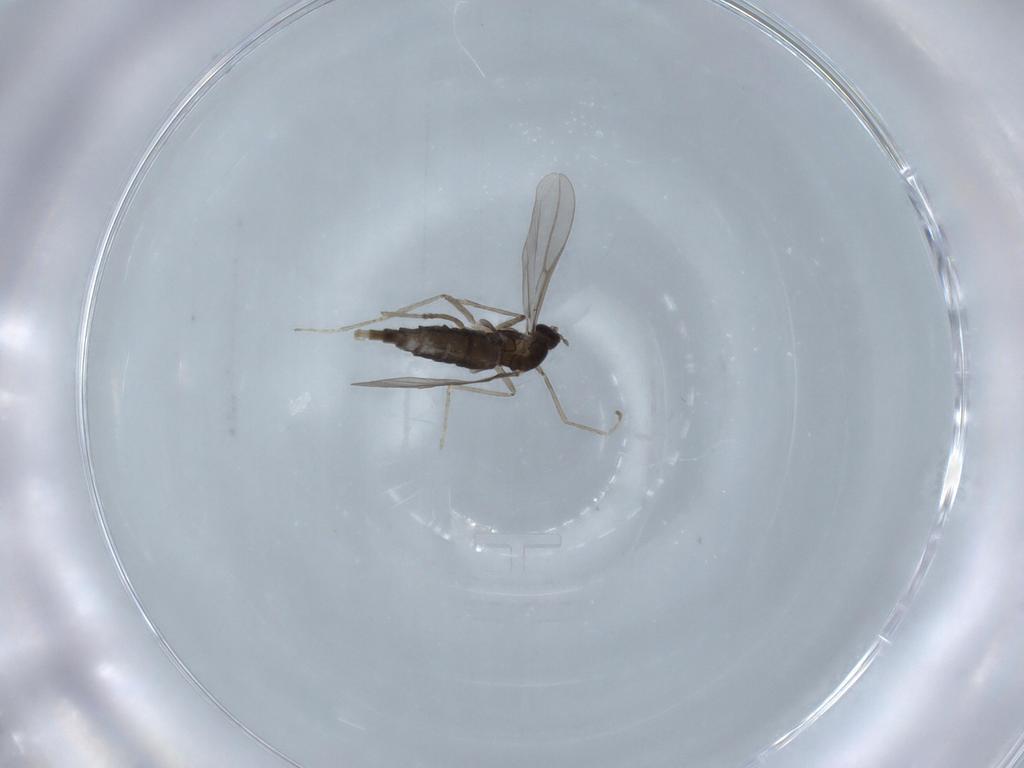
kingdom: Animalia
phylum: Arthropoda
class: Insecta
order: Diptera
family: Cecidomyiidae
